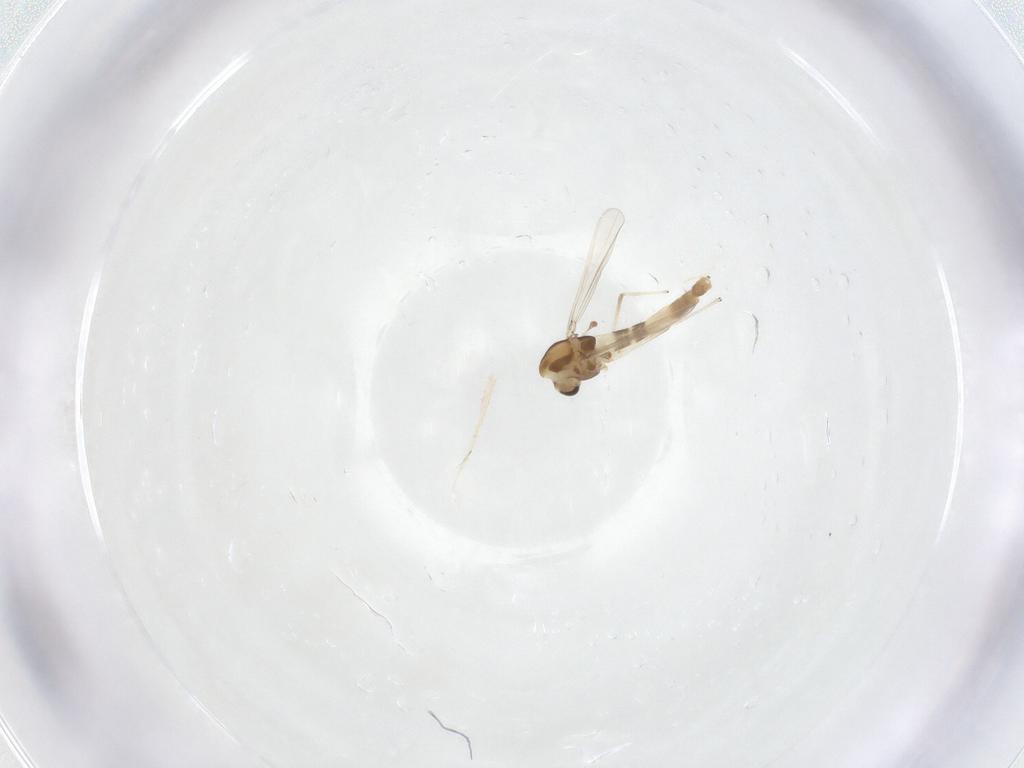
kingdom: Animalia
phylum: Arthropoda
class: Insecta
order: Diptera
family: Chironomidae
